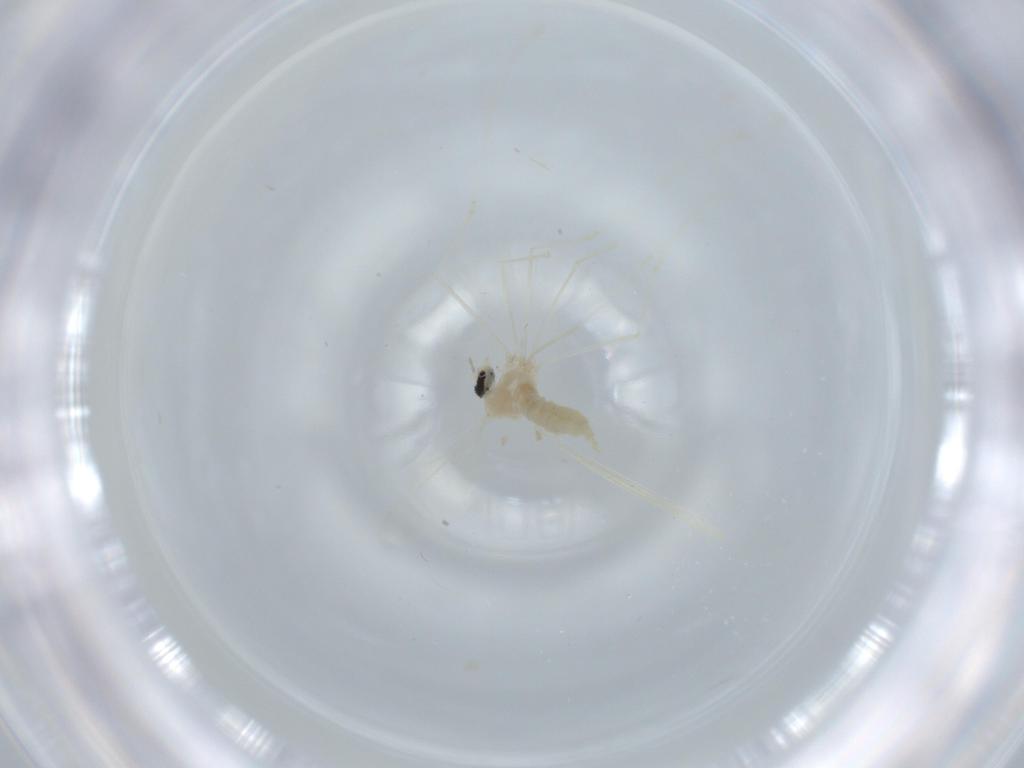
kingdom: Animalia
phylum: Arthropoda
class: Insecta
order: Diptera
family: Cecidomyiidae
